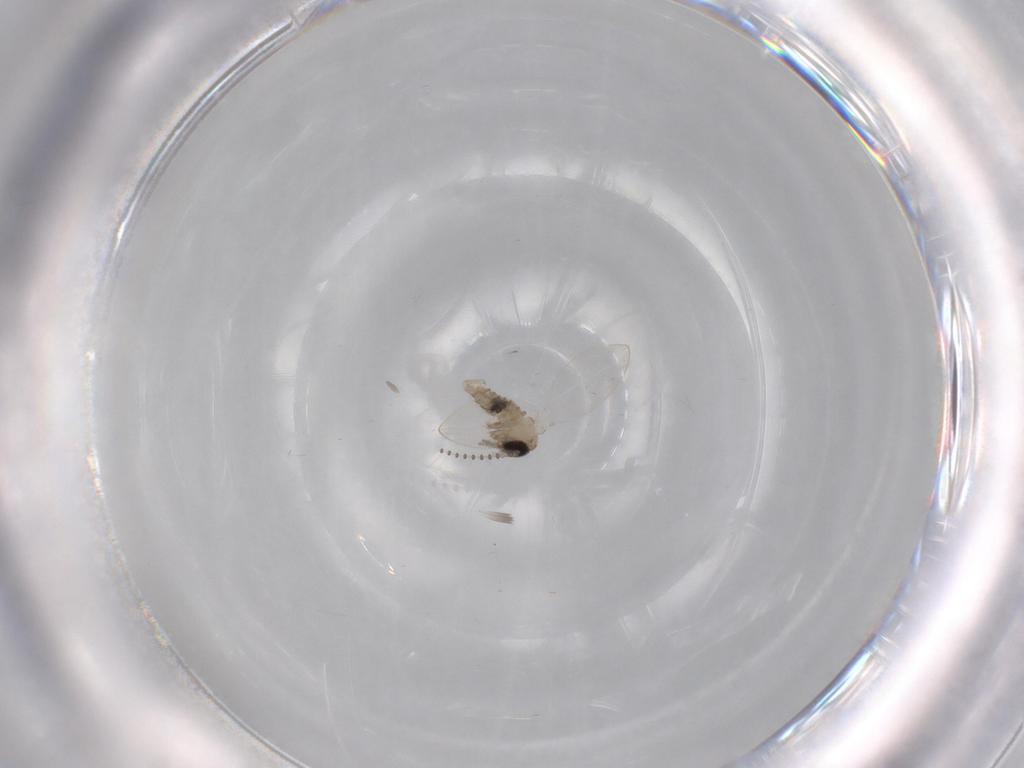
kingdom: Animalia
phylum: Arthropoda
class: Insecta
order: Diptera
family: Psychodidae
